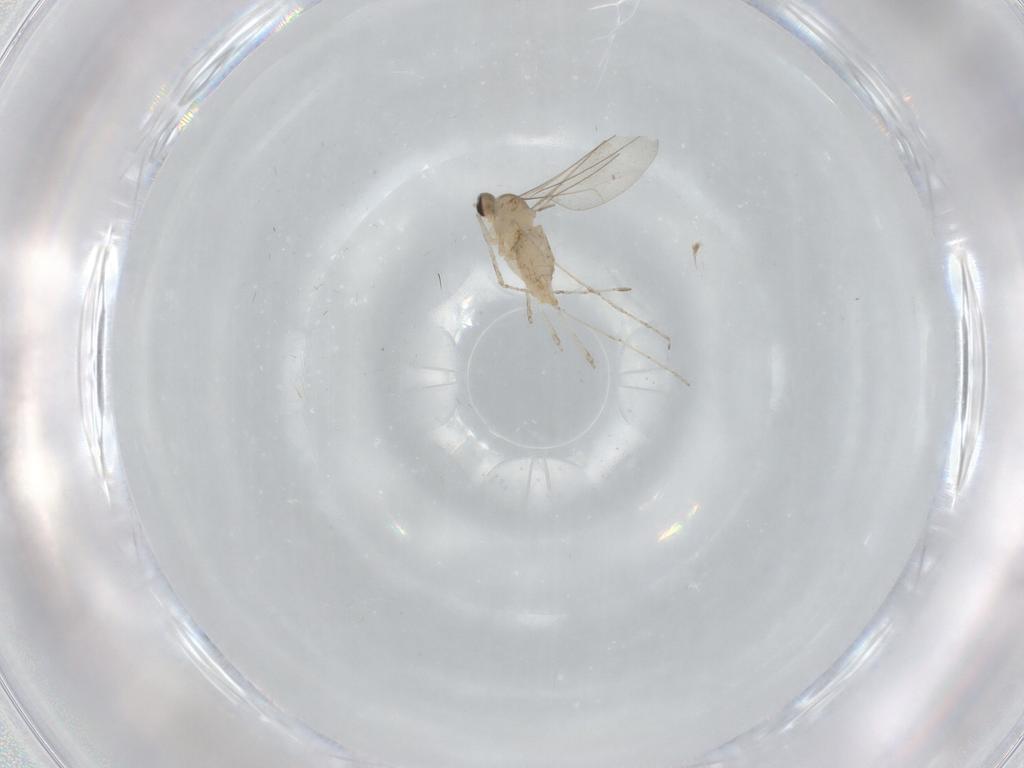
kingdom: Animalia
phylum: Arthropoda
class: Insecta
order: Diptera
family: Cecidomyiidae
